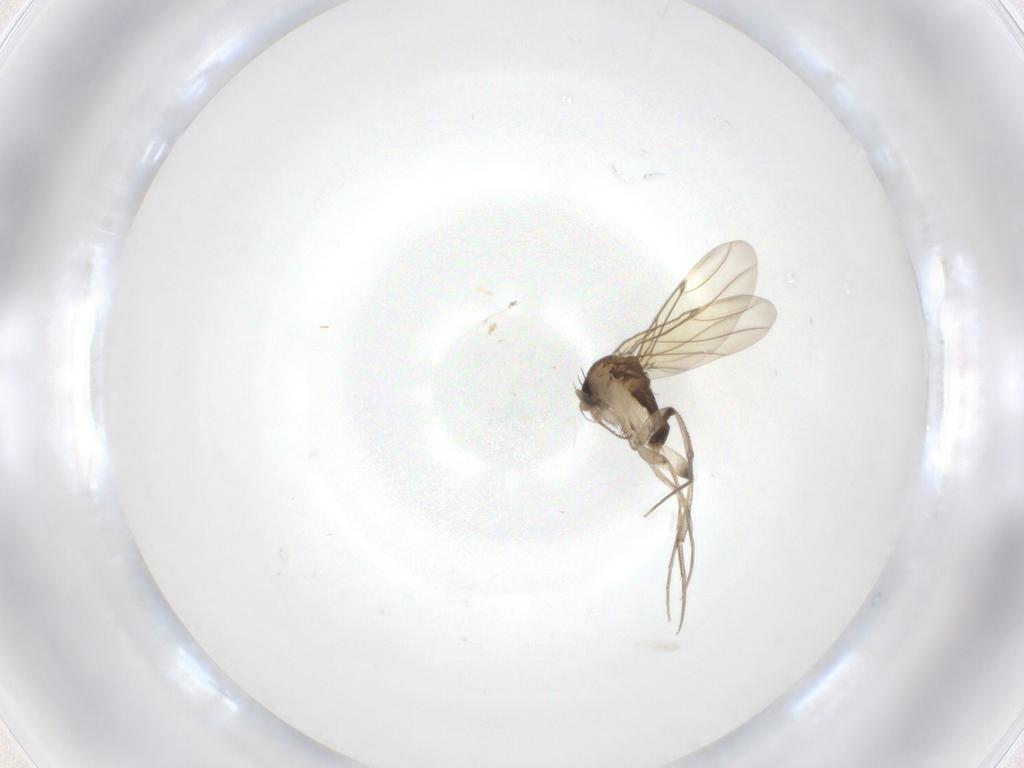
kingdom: Animalia
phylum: Arthropoda
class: Insecta
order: Diptera
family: Phoridae
